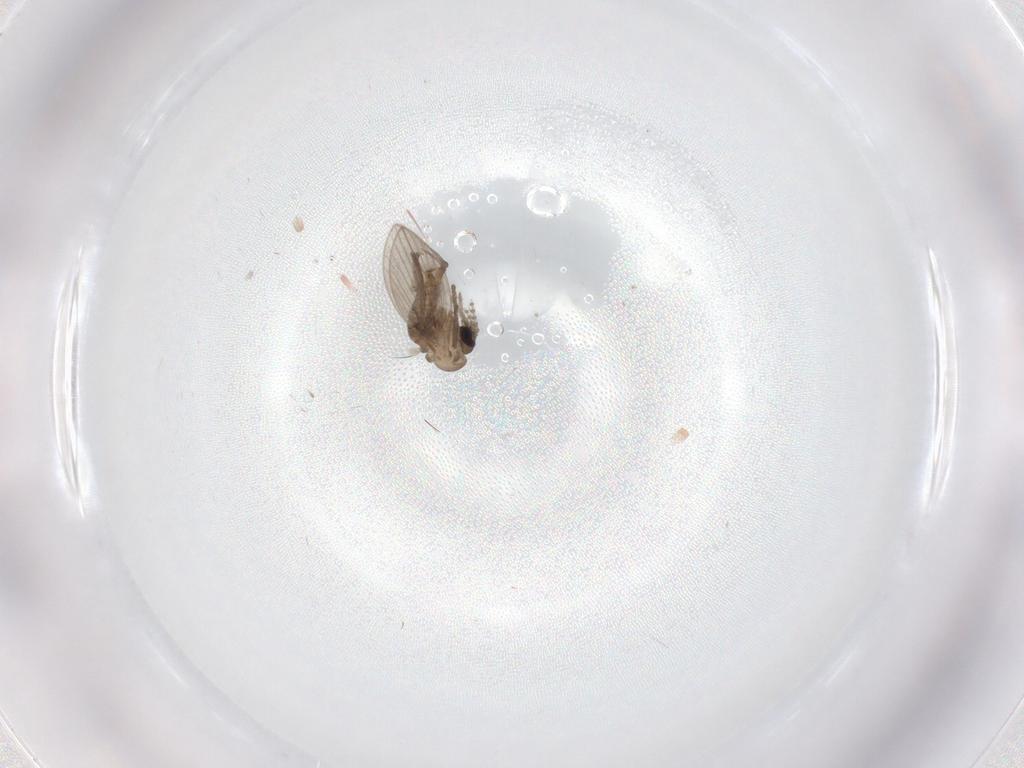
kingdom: Animalia
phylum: Arthropoda
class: Insecta
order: Diptera
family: Phoridae
